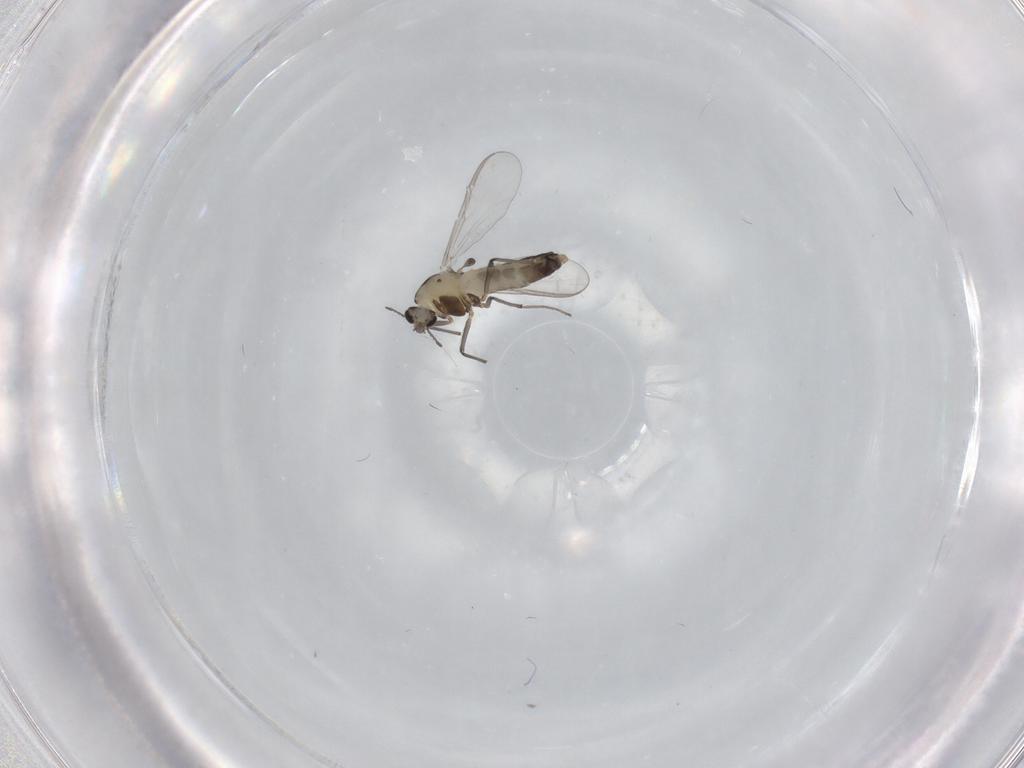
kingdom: Animalia
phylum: Arthropoda
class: Insecta
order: Diptera
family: Chironomidae
